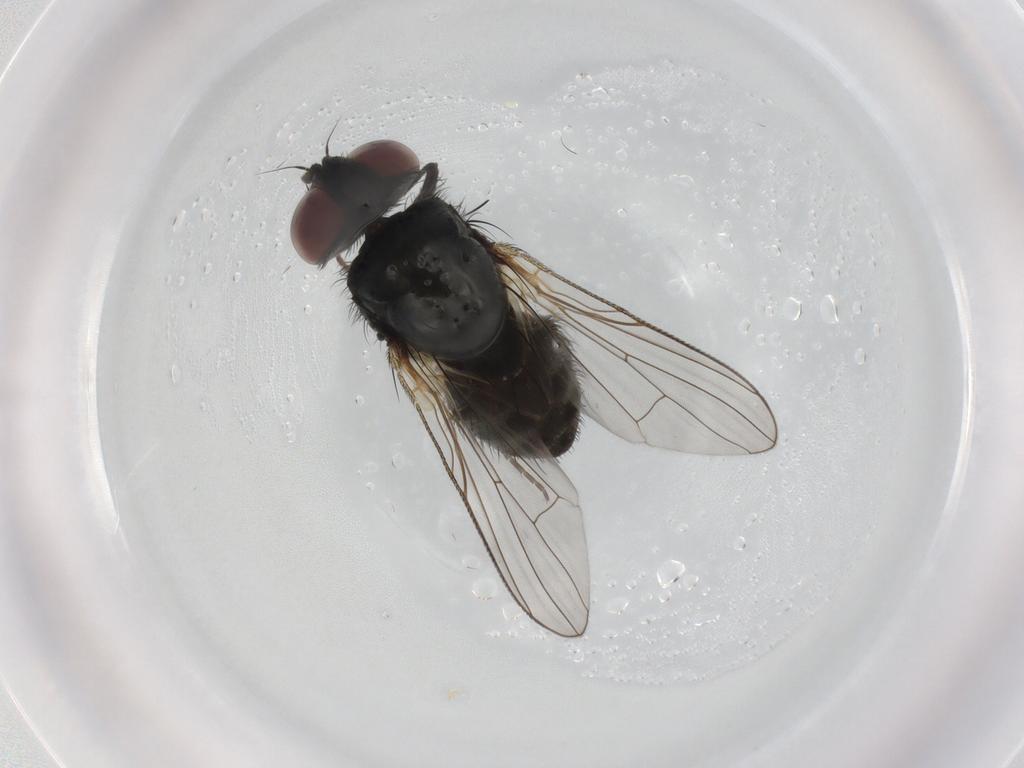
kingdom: Animalia
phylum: Arthropoda
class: Insecta
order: Diptera
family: Muscidae
